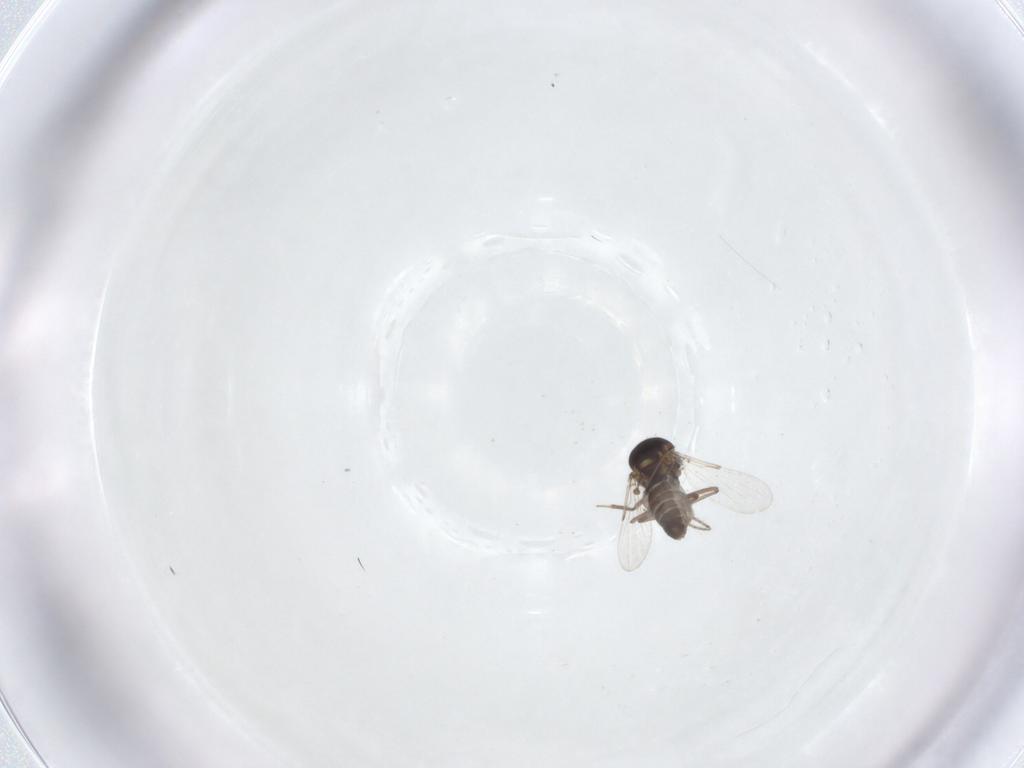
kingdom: Animalia
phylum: Arthropoda
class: Insecta
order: Diptera
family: Ceratopogonidae
